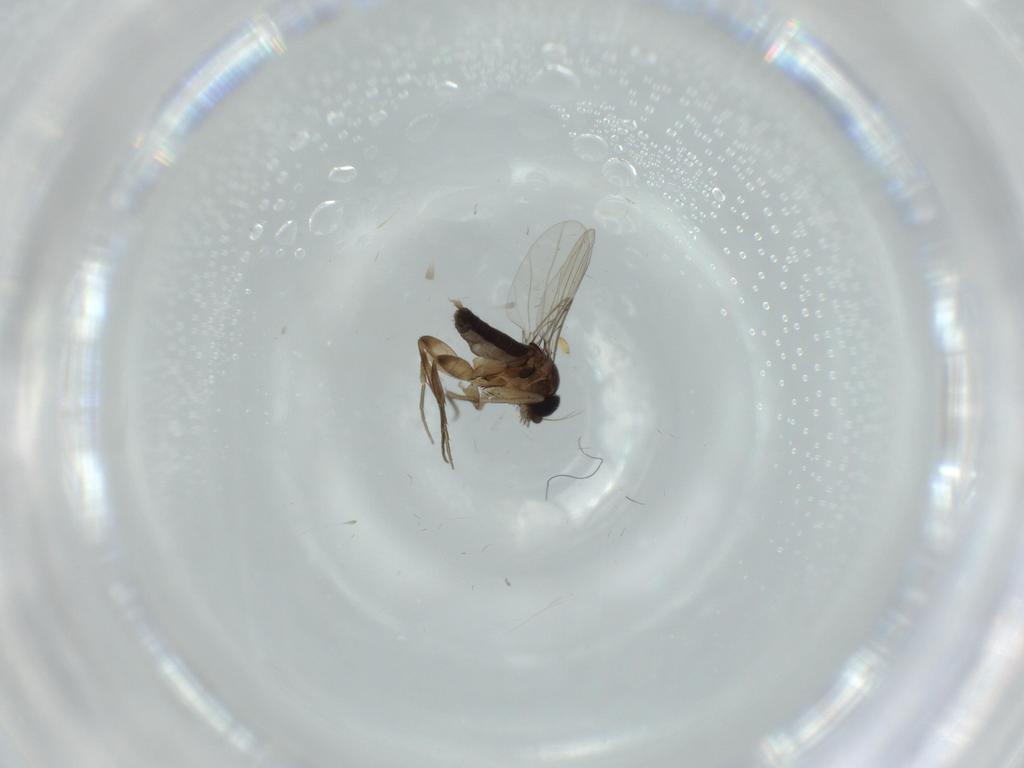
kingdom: Animalia
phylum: Arthropoda
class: Insecta
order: Diptera
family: Phoridae
